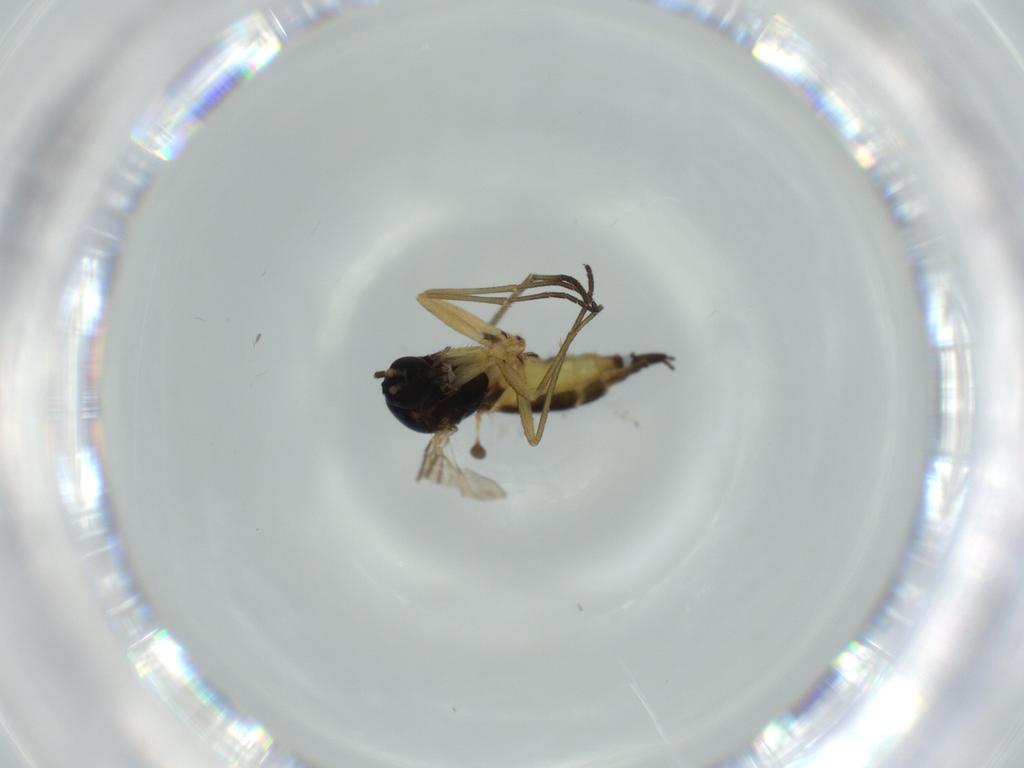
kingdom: Animalia
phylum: Arthropoda
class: Insecta
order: Diptera
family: Sciaridae
